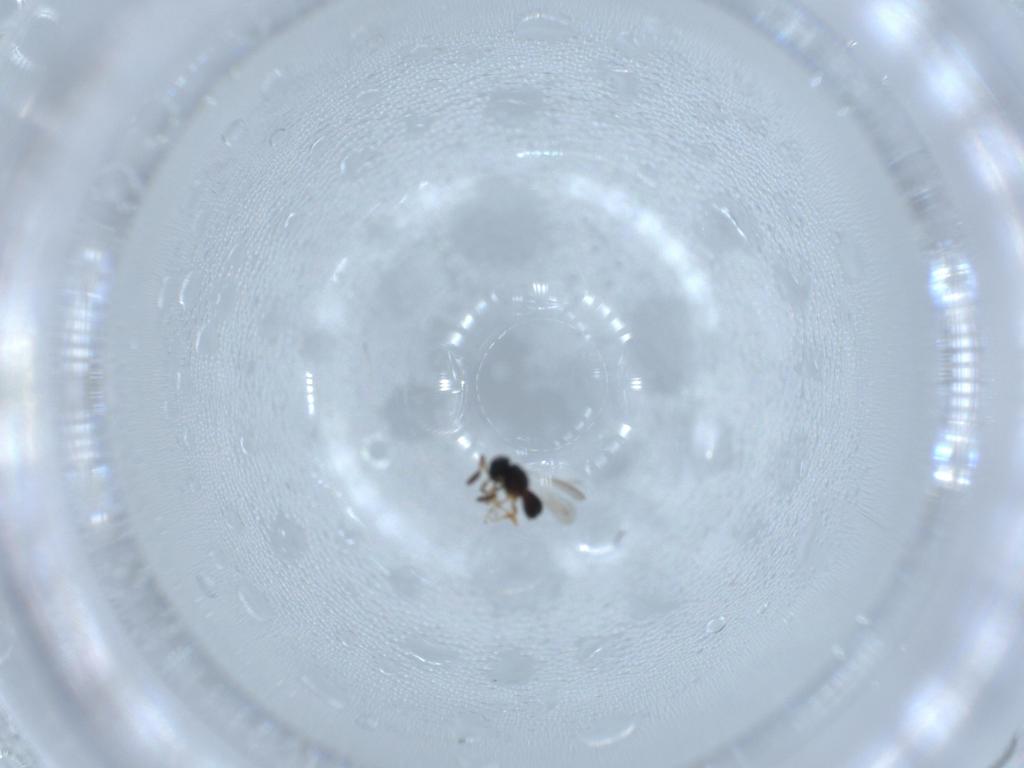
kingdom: Animalia
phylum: Arthropoda
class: Insecta
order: Hymenoptera
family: Scelionidae
